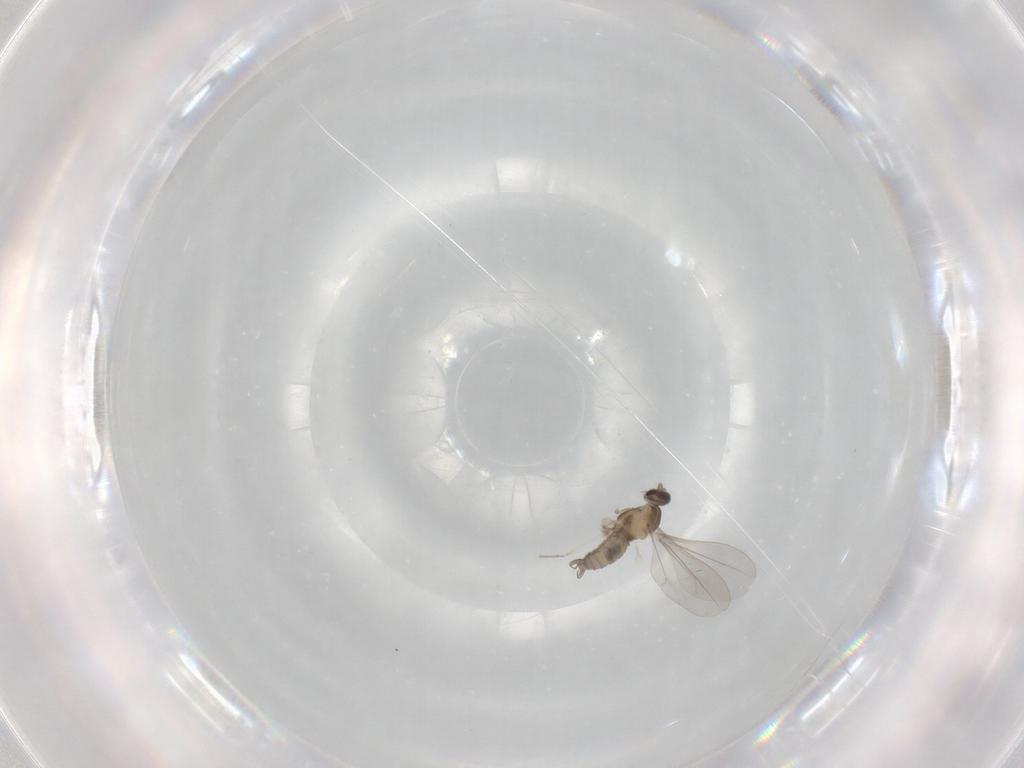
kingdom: Animalia
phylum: Arthropoda
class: Insecta
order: Diptera
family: Cecidomyiidae
